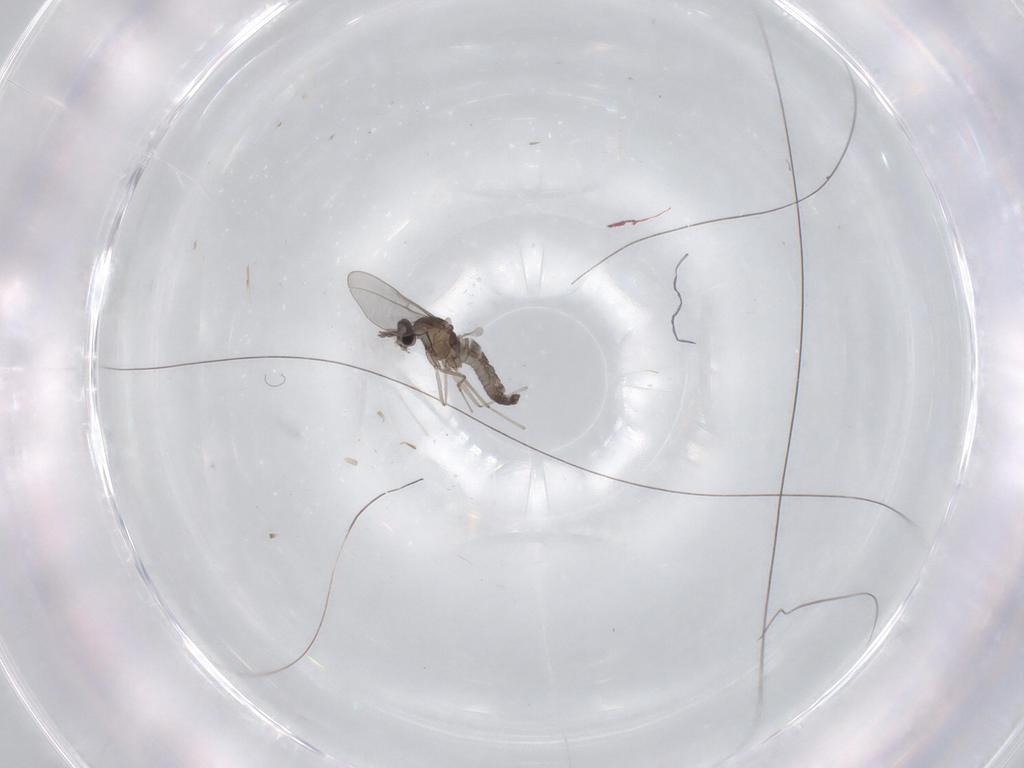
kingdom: Animalia
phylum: Arthropoda
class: Insecta
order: Diptera
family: Cecidomyiidae
